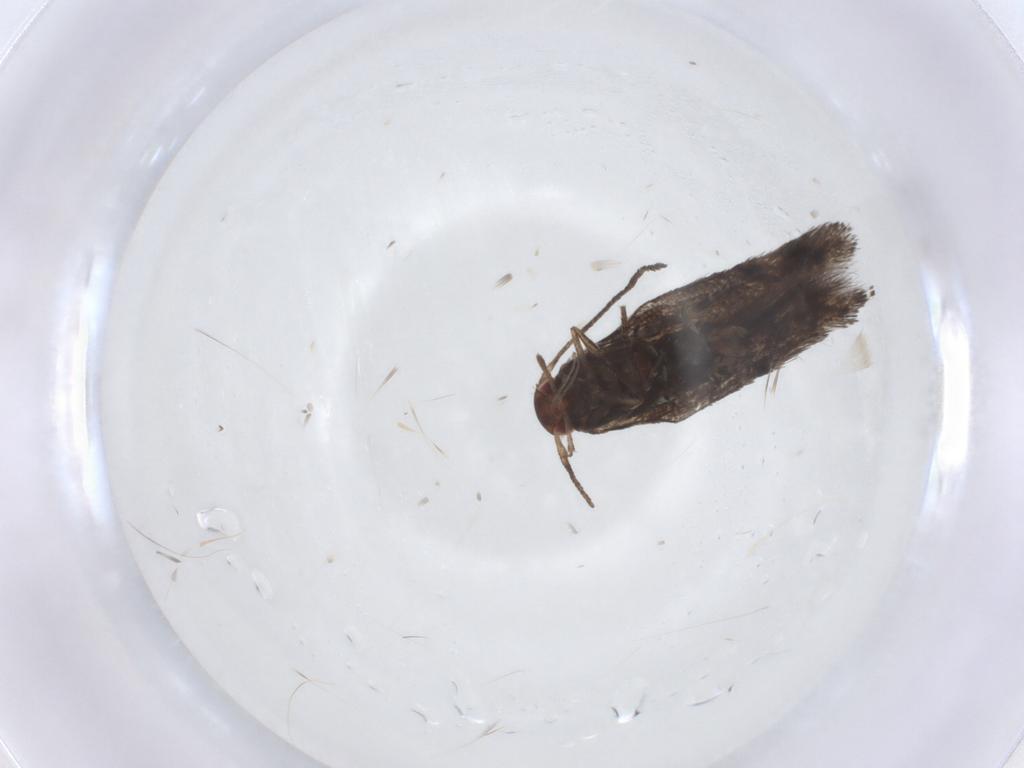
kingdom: Animalia
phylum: Arthropoda
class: Insecta
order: Lepidoptera
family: Momphidae
